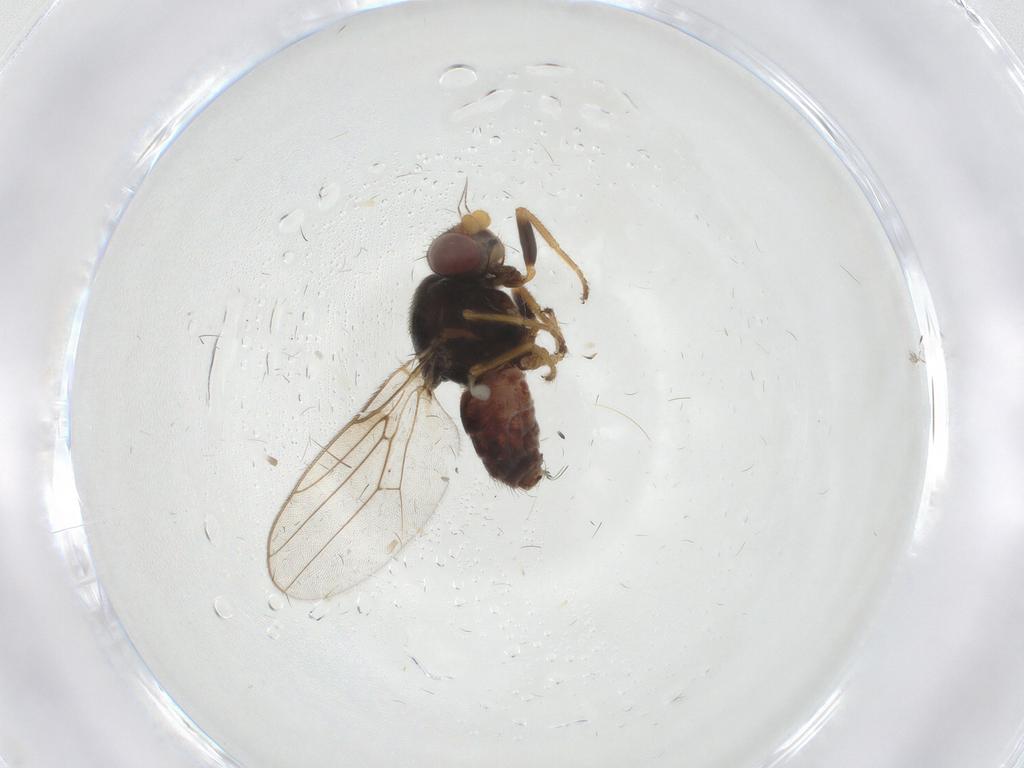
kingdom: Animalia
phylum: Arthropoda
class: Insecta
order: Diptera
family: Chloropidae
